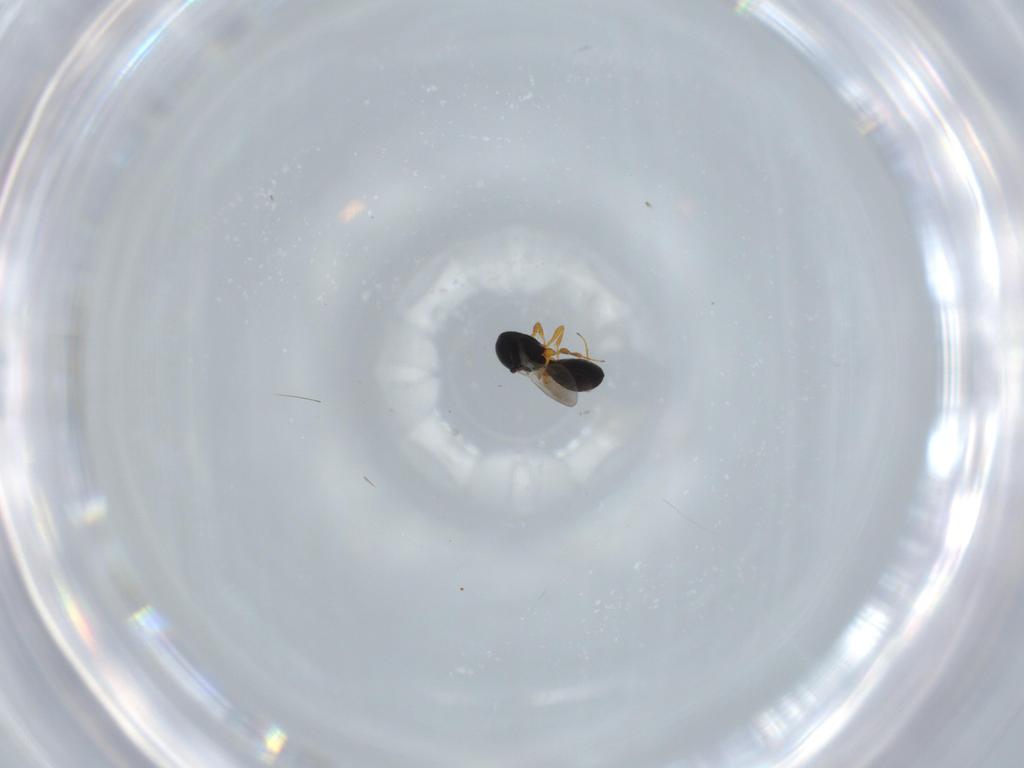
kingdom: Animalia
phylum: Arthropoda
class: Insecta
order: Hymenoptera
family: Platygastridae
